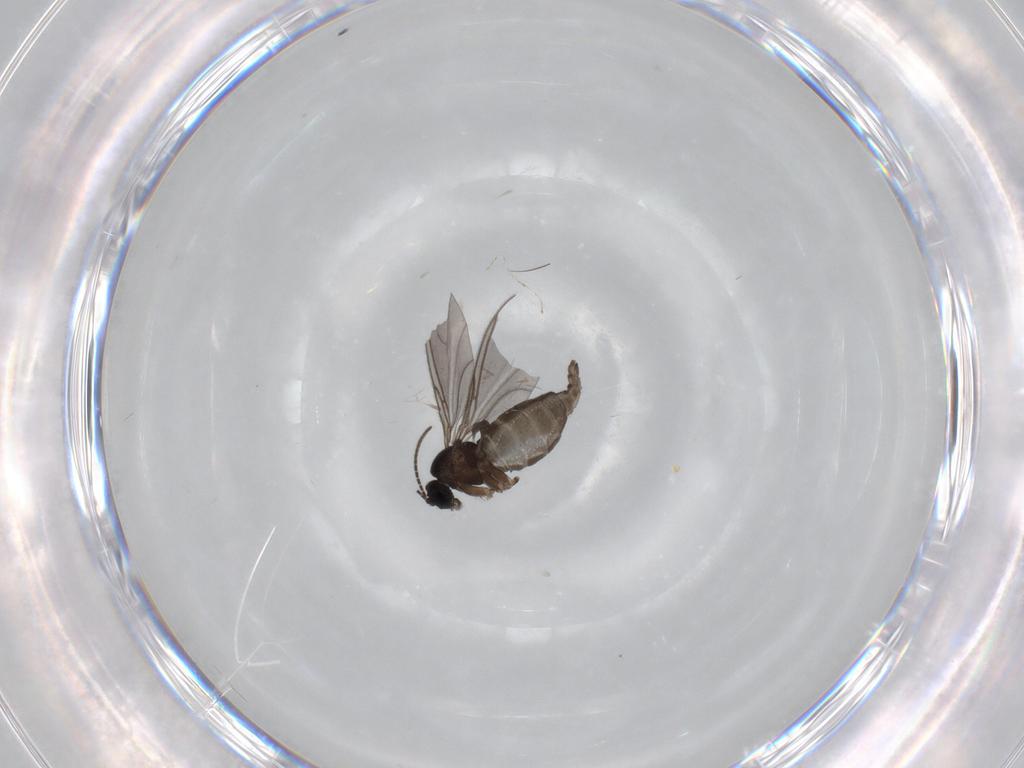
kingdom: Animalia
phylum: Arthropoda
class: Insecta
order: Diptera
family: Sciaridae
